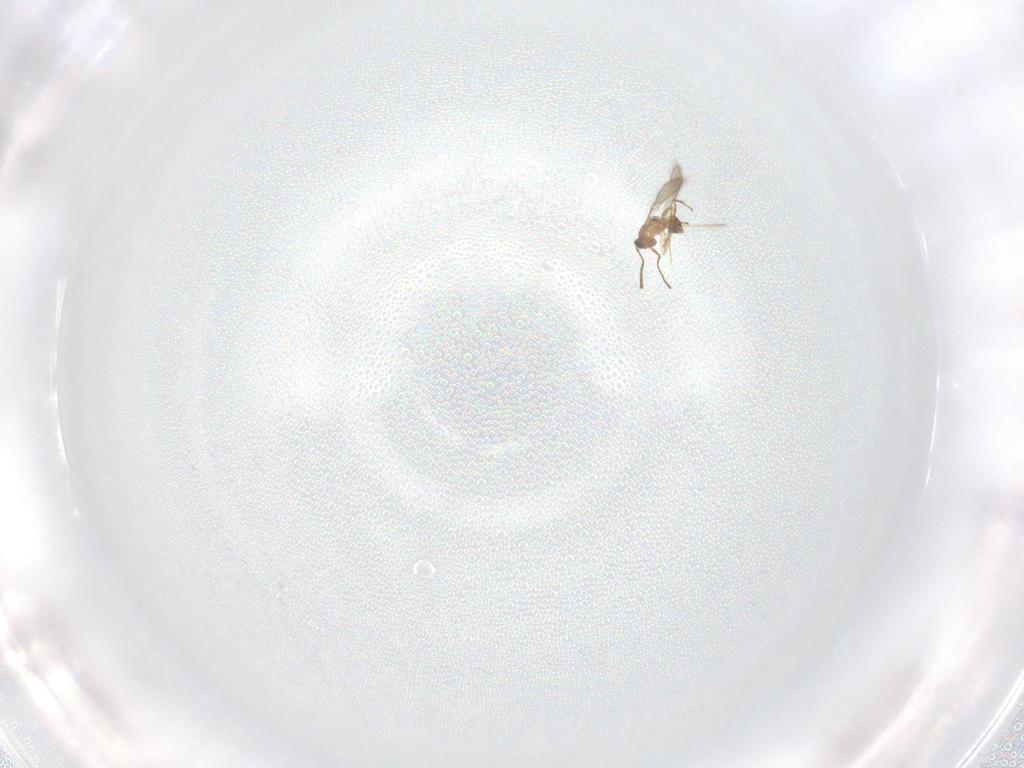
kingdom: Animalia
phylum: Arthropoda
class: Insecta
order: Hymenoptera
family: Mymaridae
